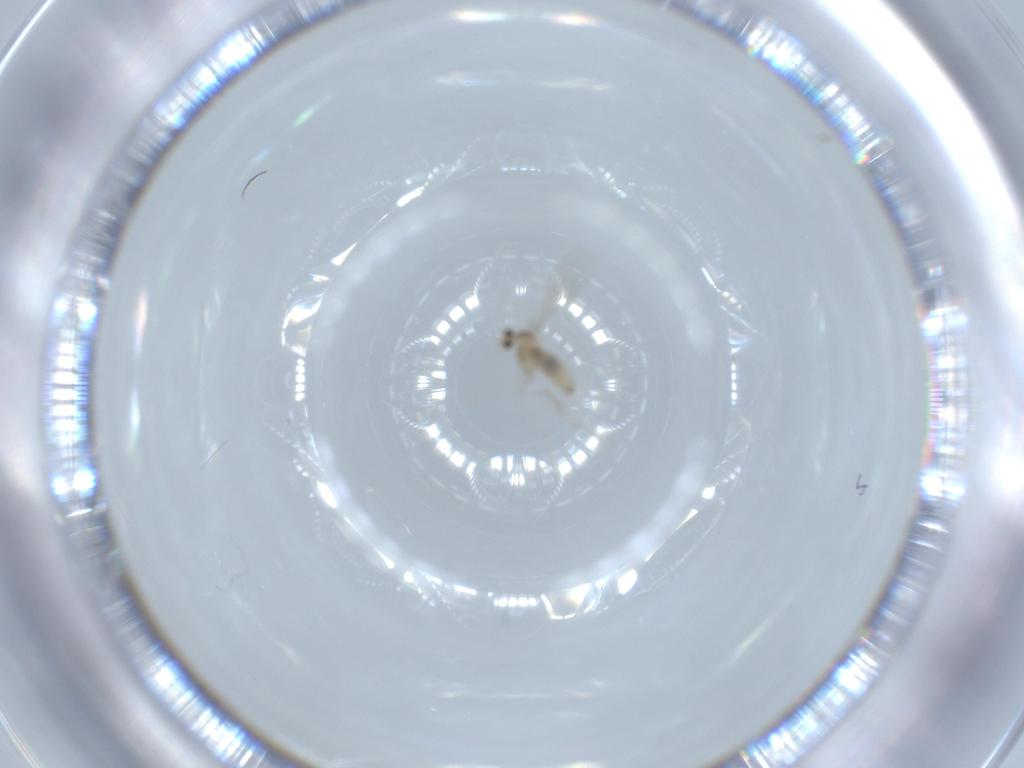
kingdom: Animalia
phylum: Arthropoda
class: Insecta
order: Diptera
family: Cecidomyiidae
